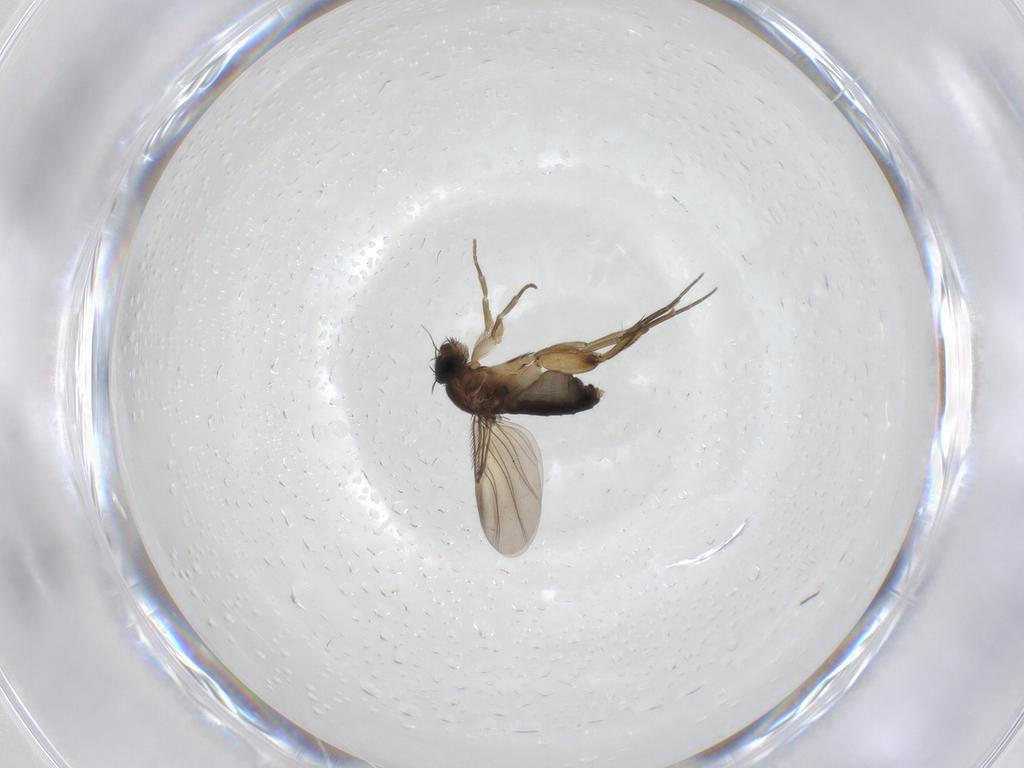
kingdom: Animalia
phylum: Arthropoda
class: Insecta
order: Diptera
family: Phoridae
